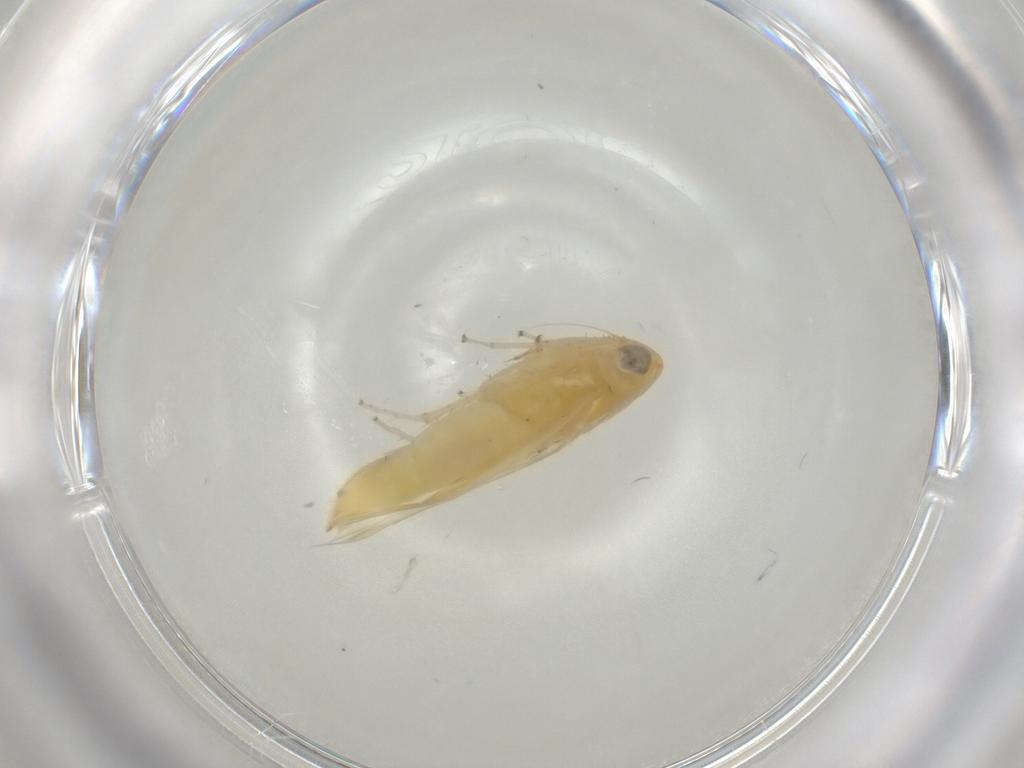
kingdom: Animalia
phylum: Arthropoda
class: Insecta
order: Hemiptera
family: Cicadellidae
